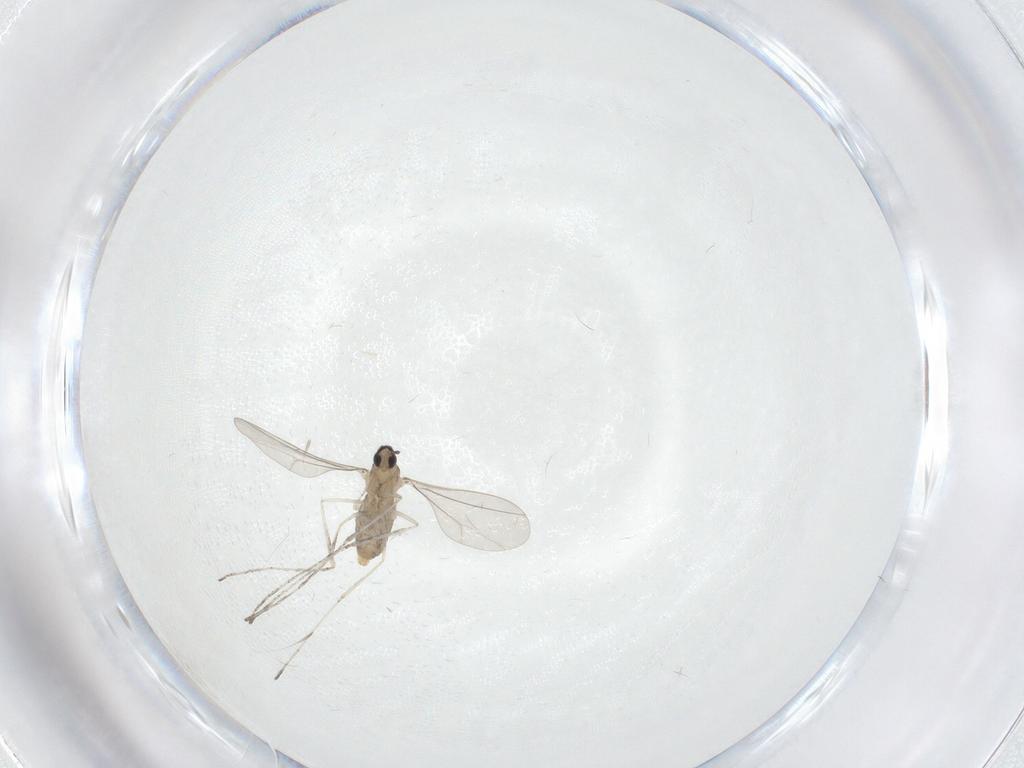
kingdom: Animalia
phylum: Arthropoda
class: Insecta
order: Diptera
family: Cecidomyiidae
